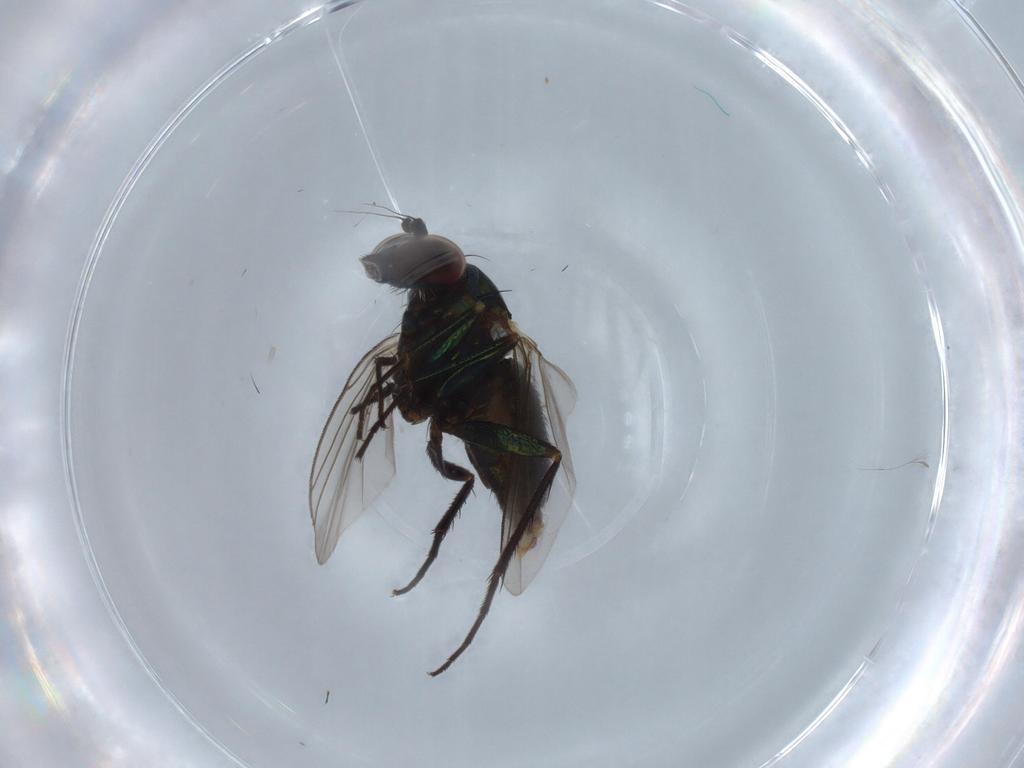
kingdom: Animalia
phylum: Arthropoda
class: Insecta
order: Diptera
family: Dolichopodidae
